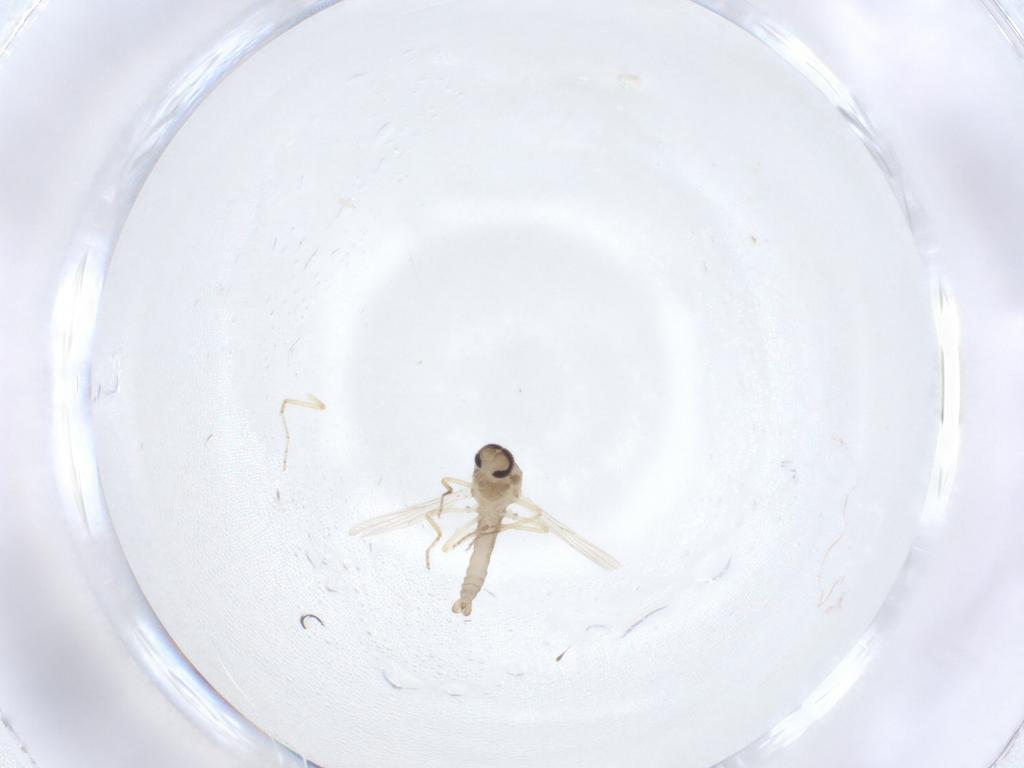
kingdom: Animalia
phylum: Arthropoda
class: Insecta
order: Diptera
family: Ceratopogonidae
